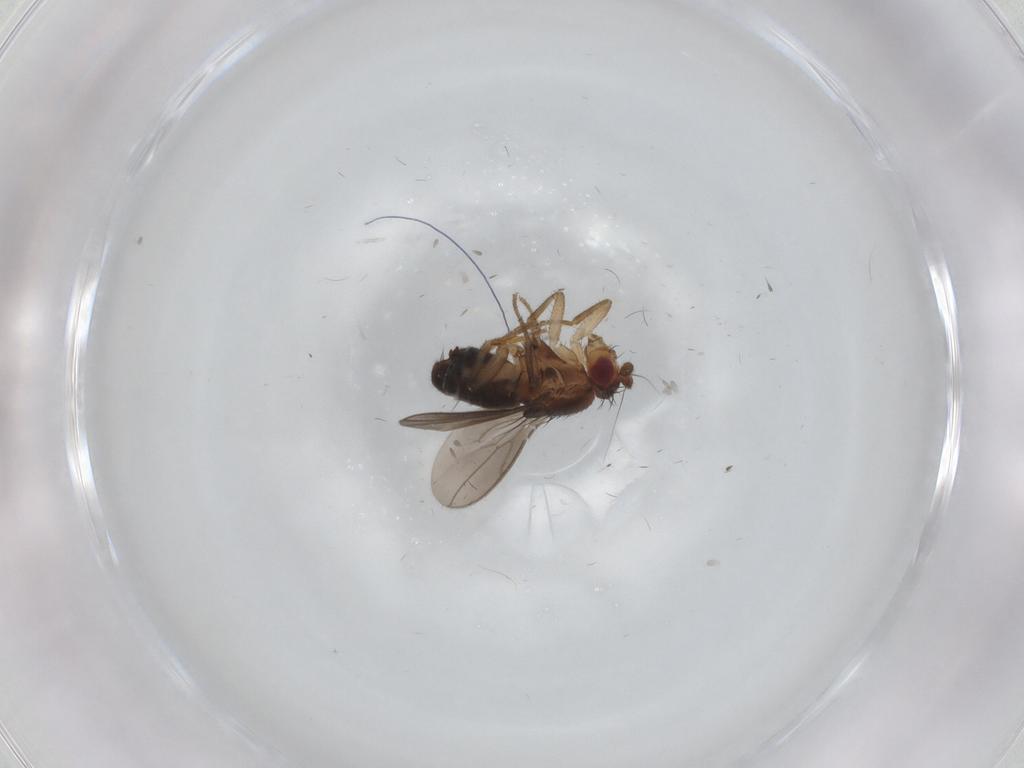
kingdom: Animalia
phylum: Arthropoda
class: Insecta
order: Diptera
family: Sphaeroceridae
